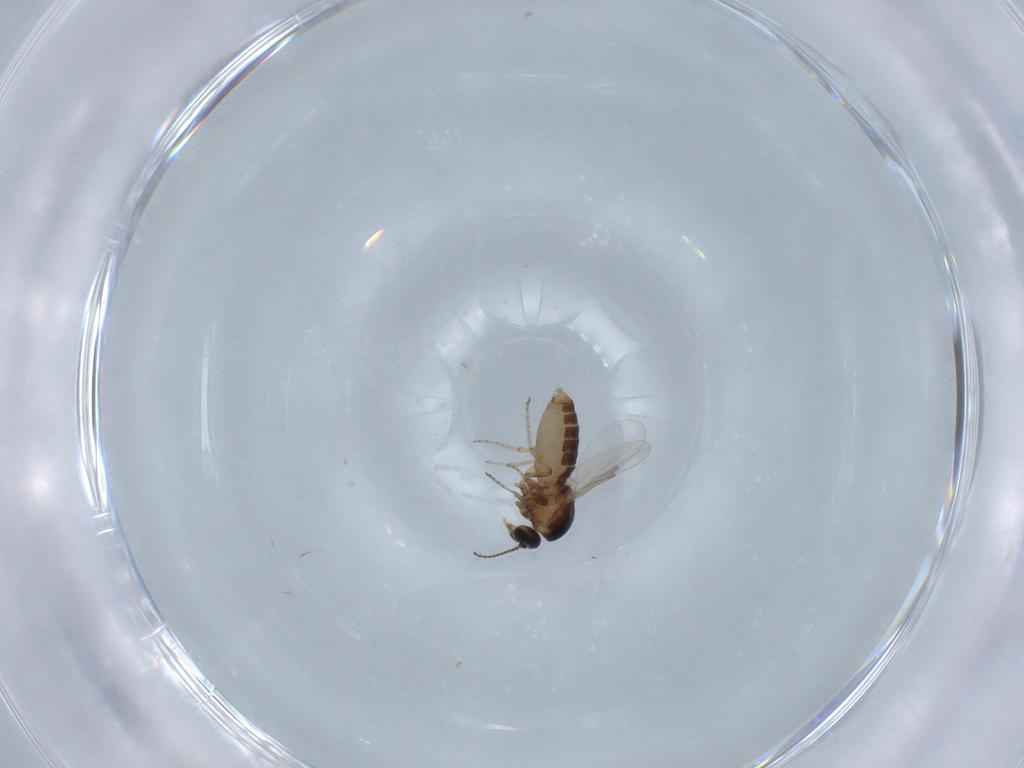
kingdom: Animalia
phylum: Arthropoda
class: Insecta
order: Diptera
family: Ceratopogonidae
